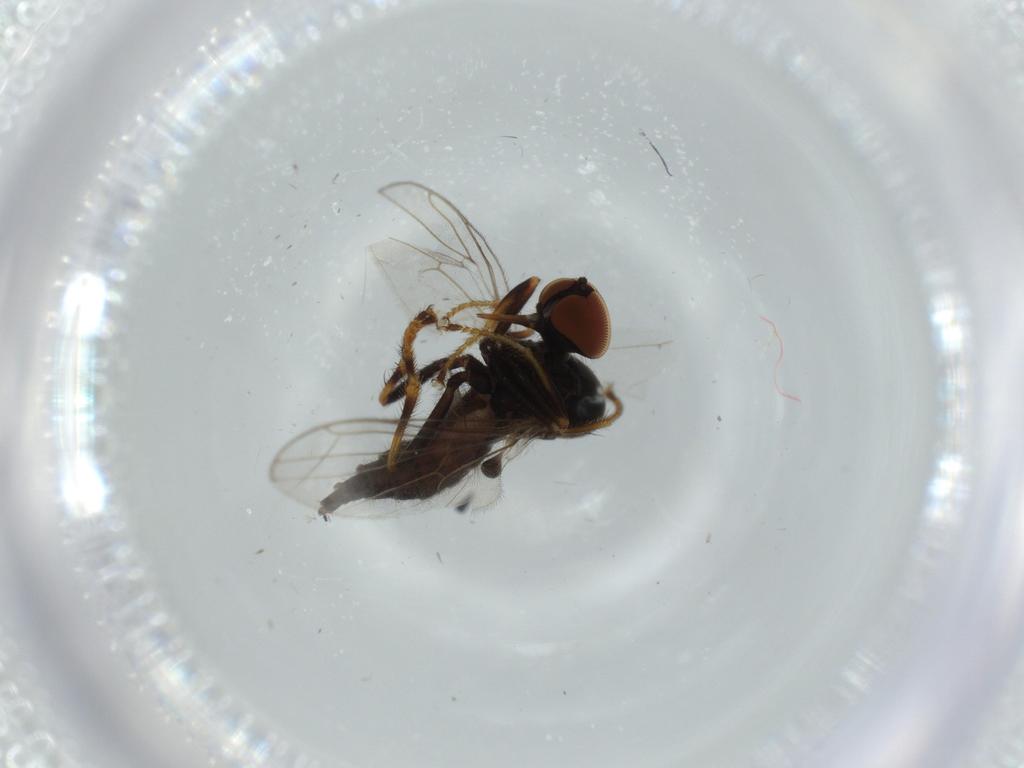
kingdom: Animalia
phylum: Arthropoda
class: Insecta
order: Diptera
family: Hybotidae
